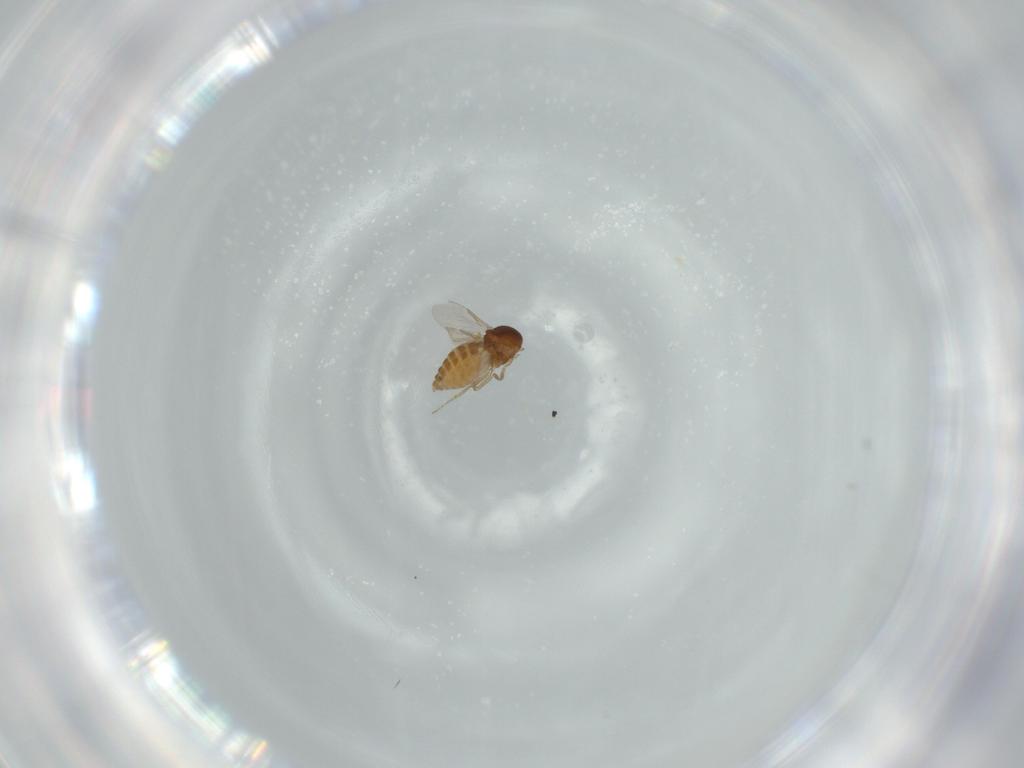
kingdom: Animalia
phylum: Arthropoda
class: Insecta
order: Diptera
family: Ceratopogonidae
